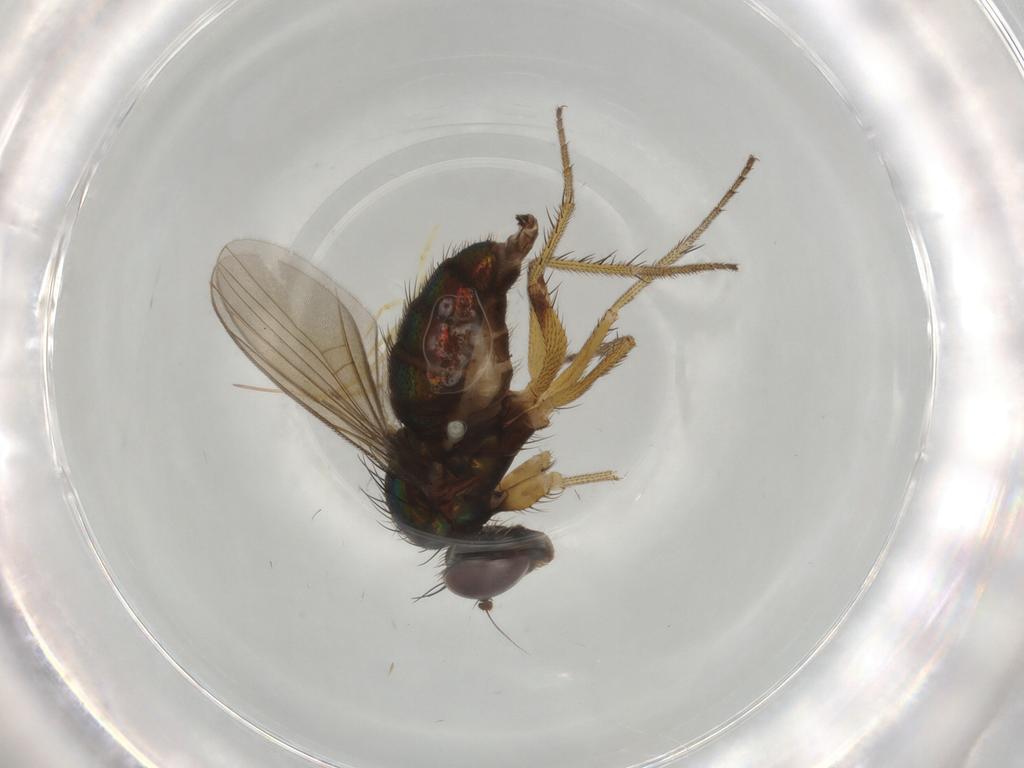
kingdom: Animalia
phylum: Arthropoda
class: Insecta
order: Diptera
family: Dolichopodidae
